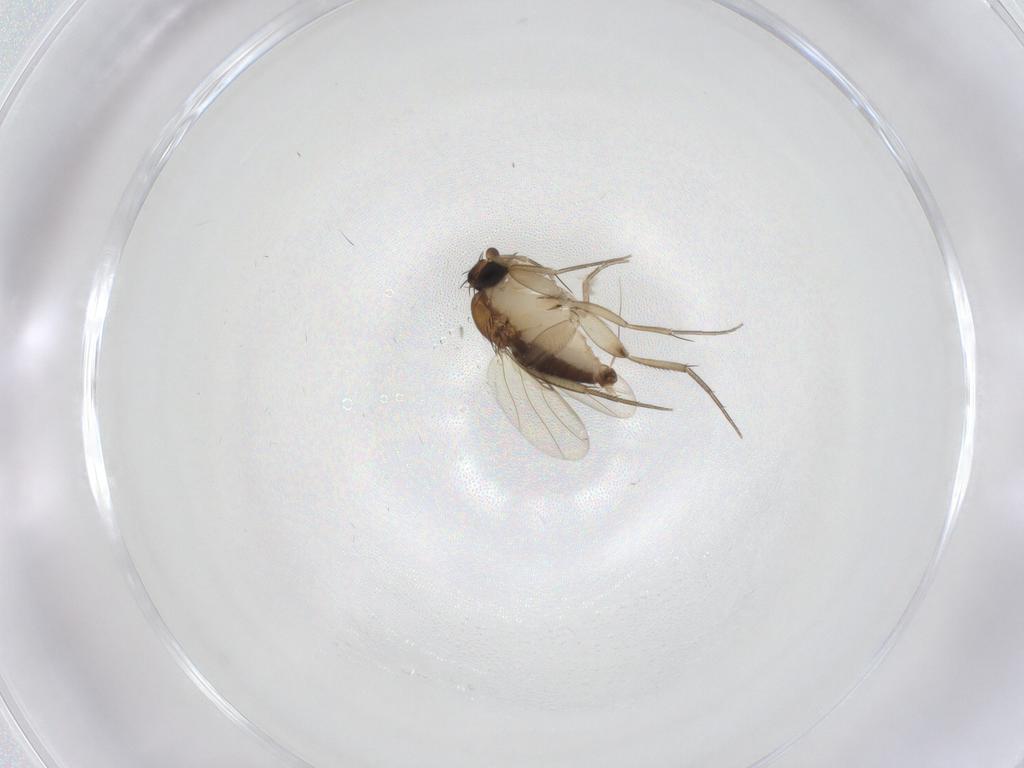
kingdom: Animalia
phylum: Arthropoda
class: Insecta
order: Diptera
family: Phoridae
